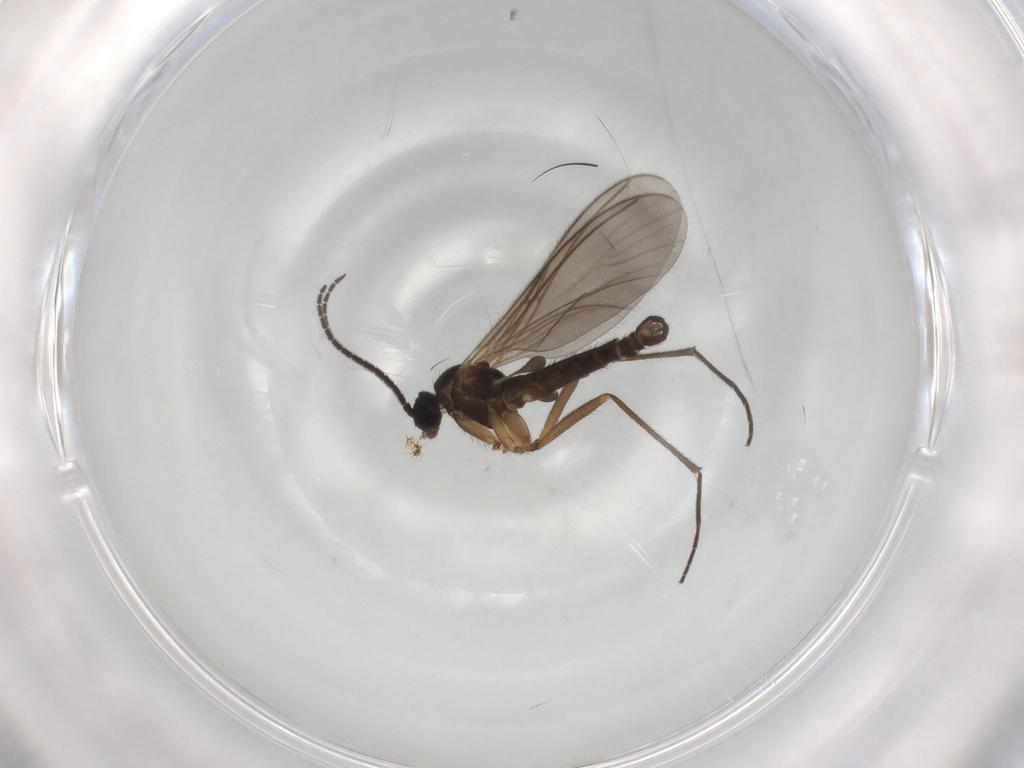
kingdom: Animalia
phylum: Arthropoda
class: Insecta
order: Diptera
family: Sciaridae
